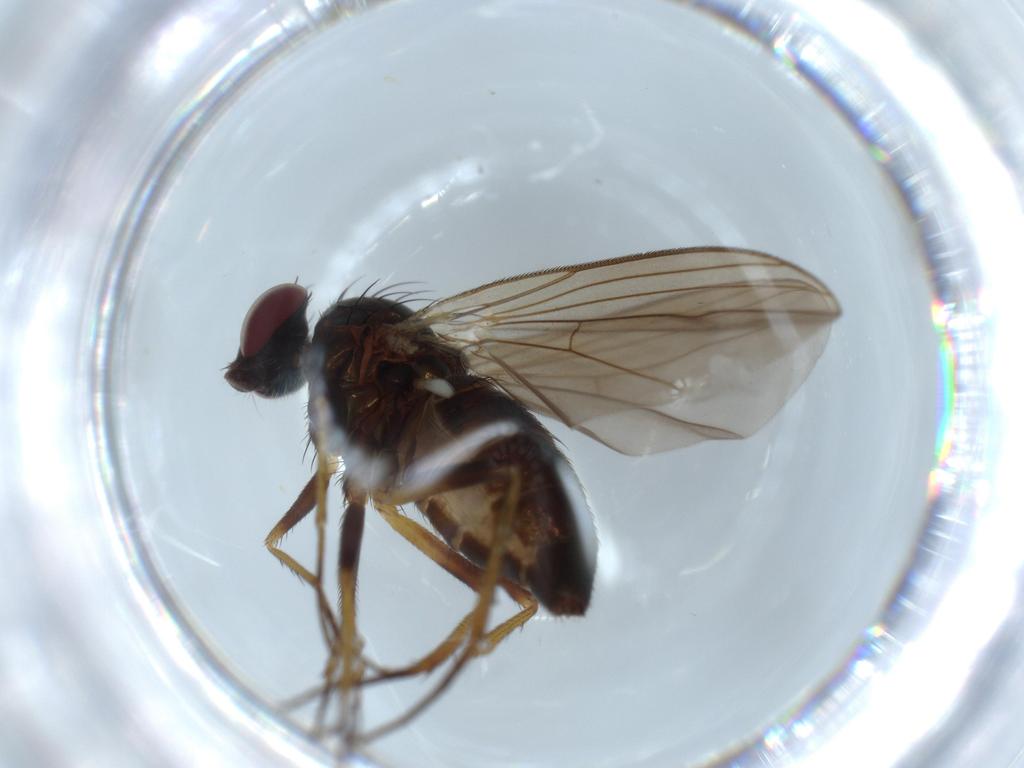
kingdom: Animalia
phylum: Arthropoda
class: Insecta
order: Diptera
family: Dolichopodidae
